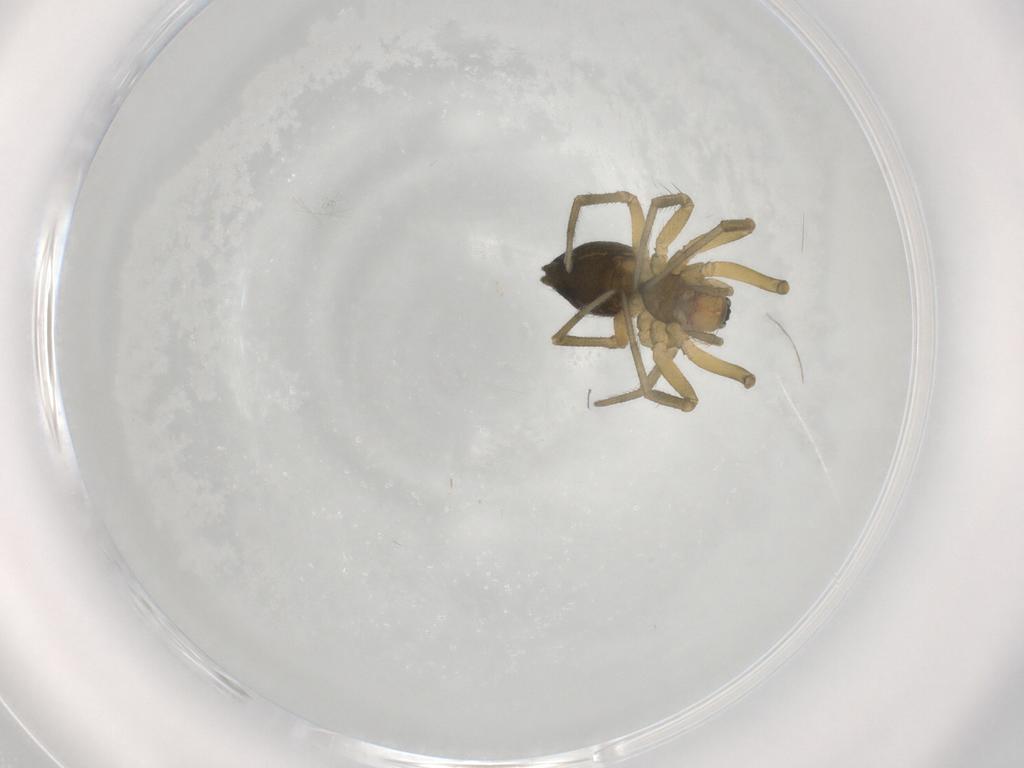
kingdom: Animalia
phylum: Arthropoda
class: Arachnida
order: Araneae
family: Linyphiidae
